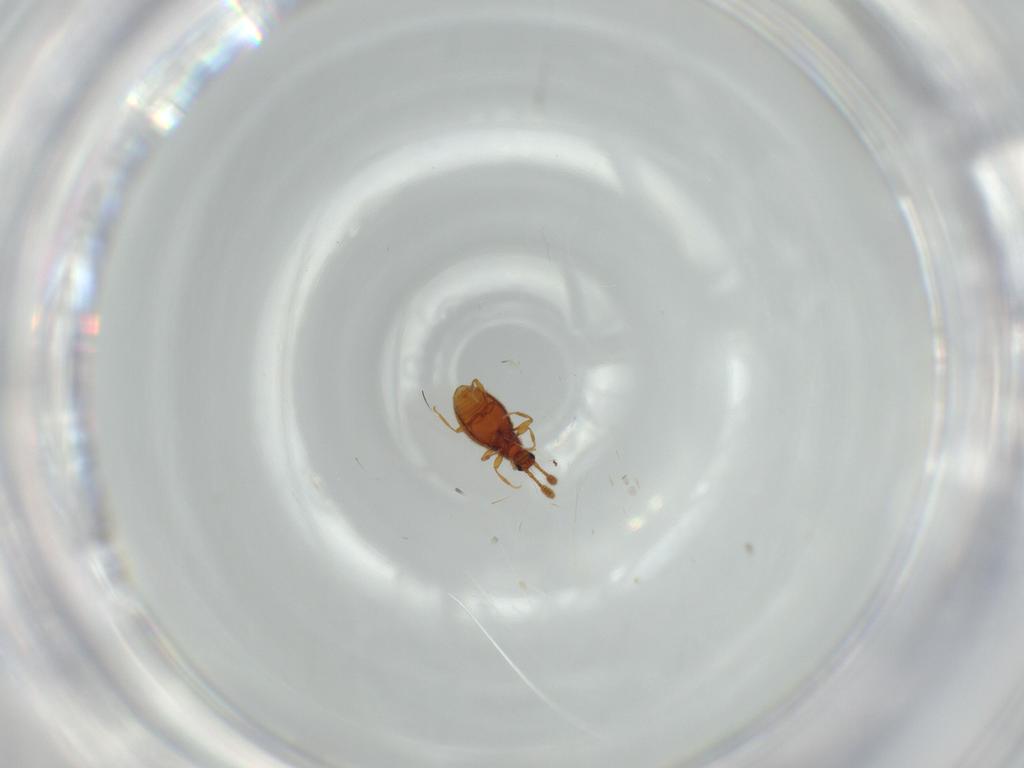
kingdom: Animalia
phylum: Arthropoda
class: Insecta
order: Coleoptera
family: Staphylinidae
